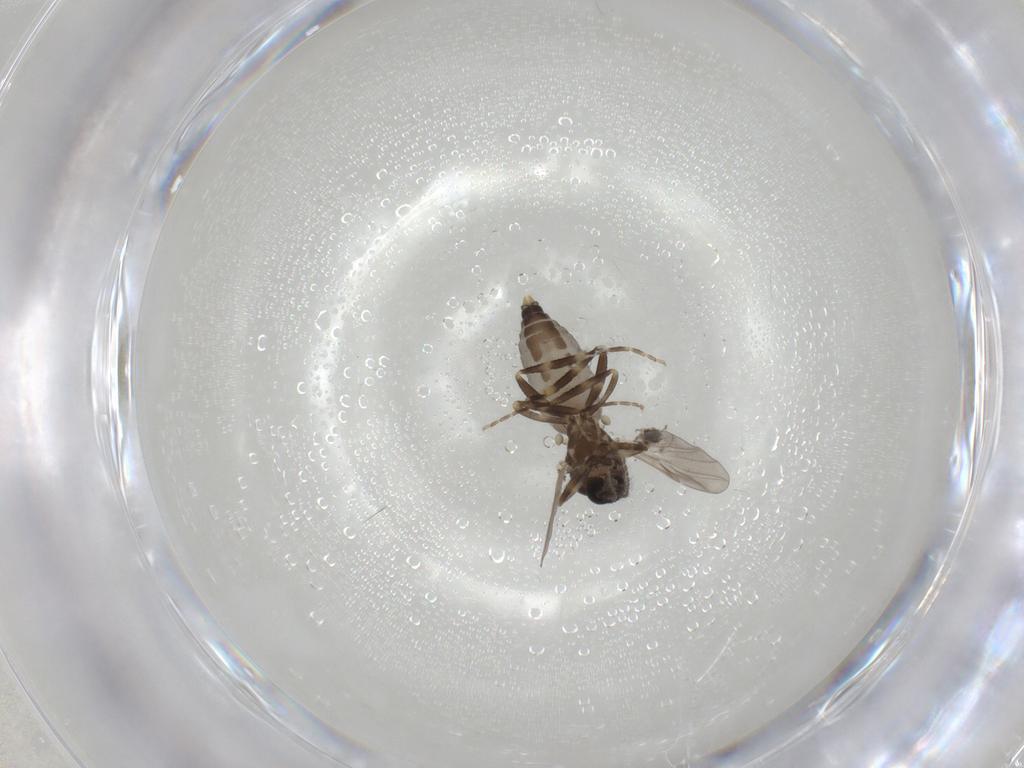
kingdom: Animalia
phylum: Arthropoda
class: Insecta
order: Diptera
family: Ceratopogonidae
